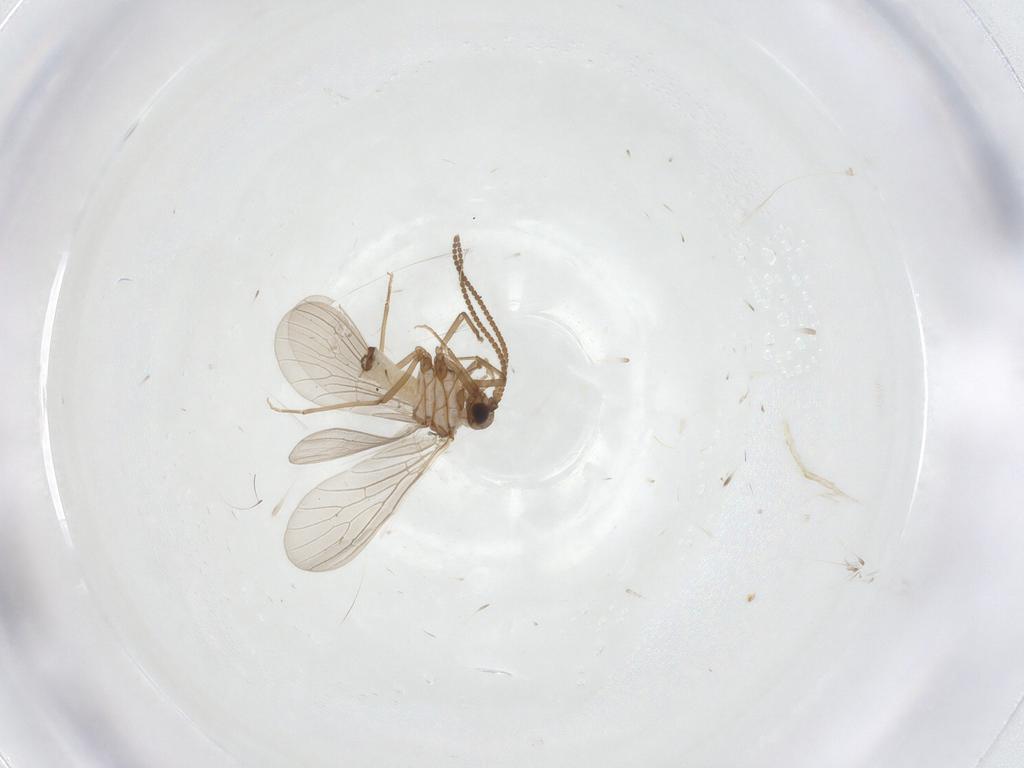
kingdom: Animalia
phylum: Arthropoda
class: Insecta
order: Neuroptera
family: Coniopterygidae
